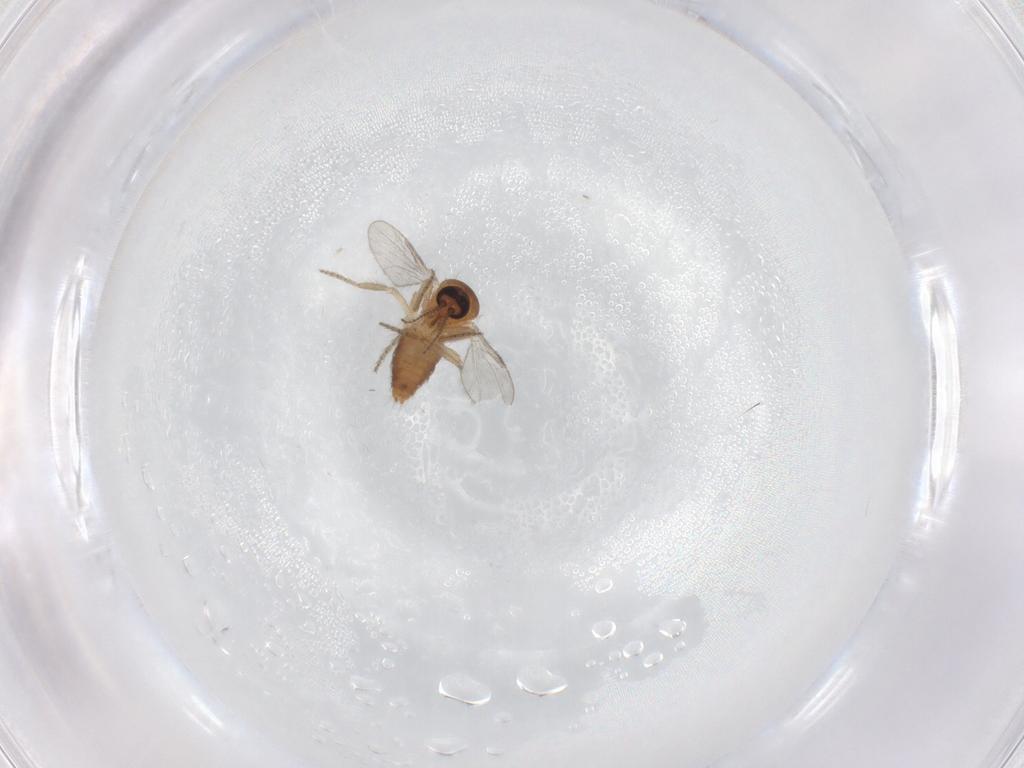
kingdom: Animalia
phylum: Arthropoda
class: Insecta
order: Diptera
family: Ceratopogonidae
